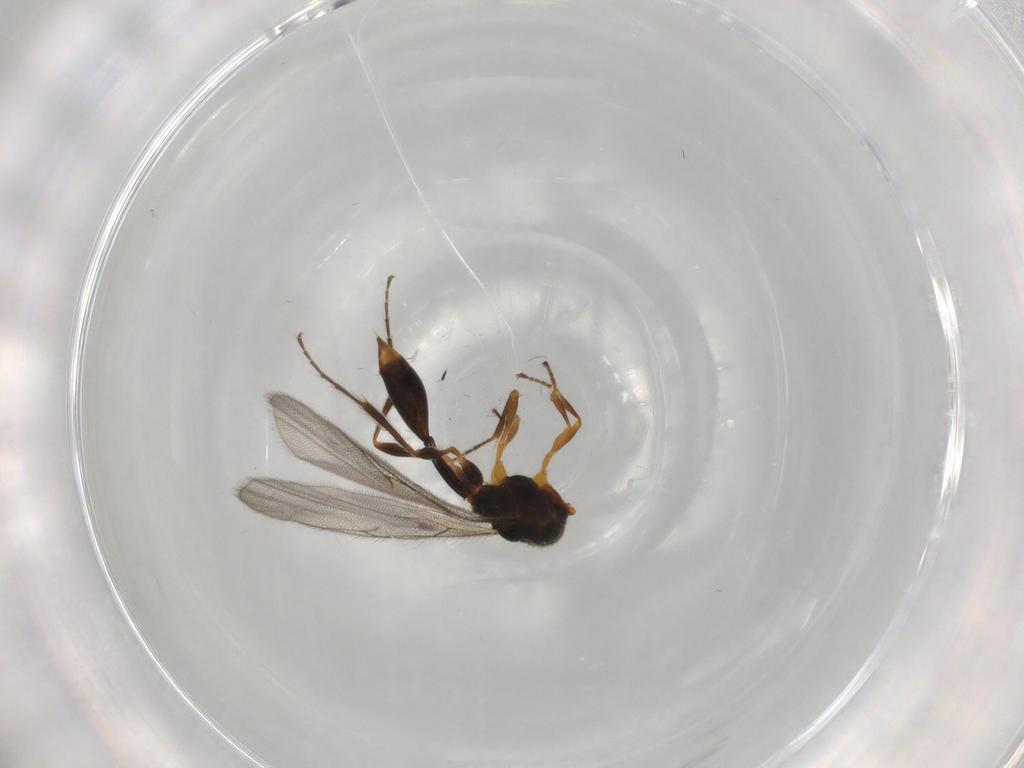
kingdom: Animalia
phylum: Arthropoda
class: Insecta
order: Hymenoptera
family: Diapriidae
